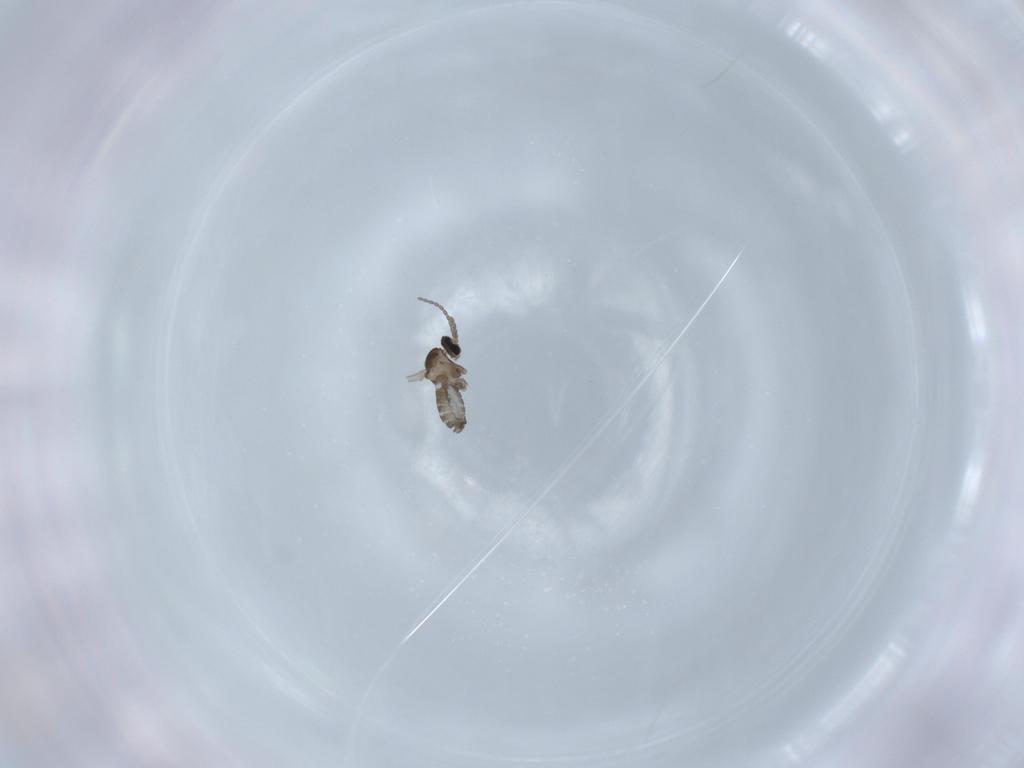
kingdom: Animalia
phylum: Arthropoda
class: Insecta
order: Diptera
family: Cecidomyiidae
